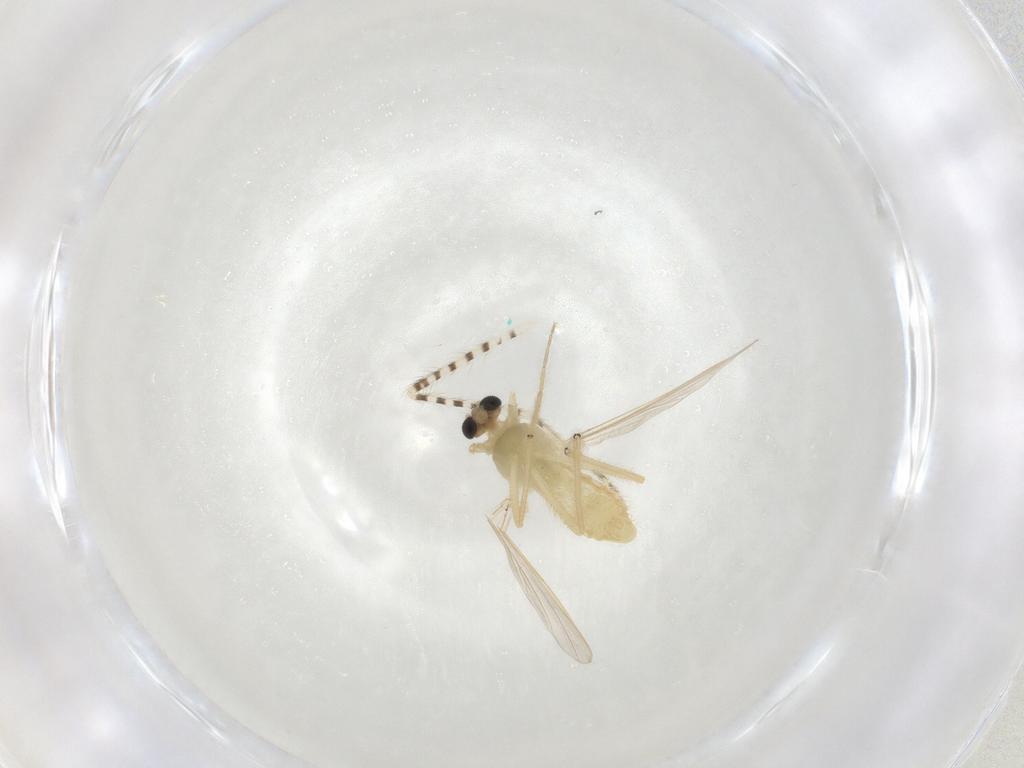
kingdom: Animalia
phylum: Arthropoda
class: Insecta
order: Diptera
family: Chironomidae
